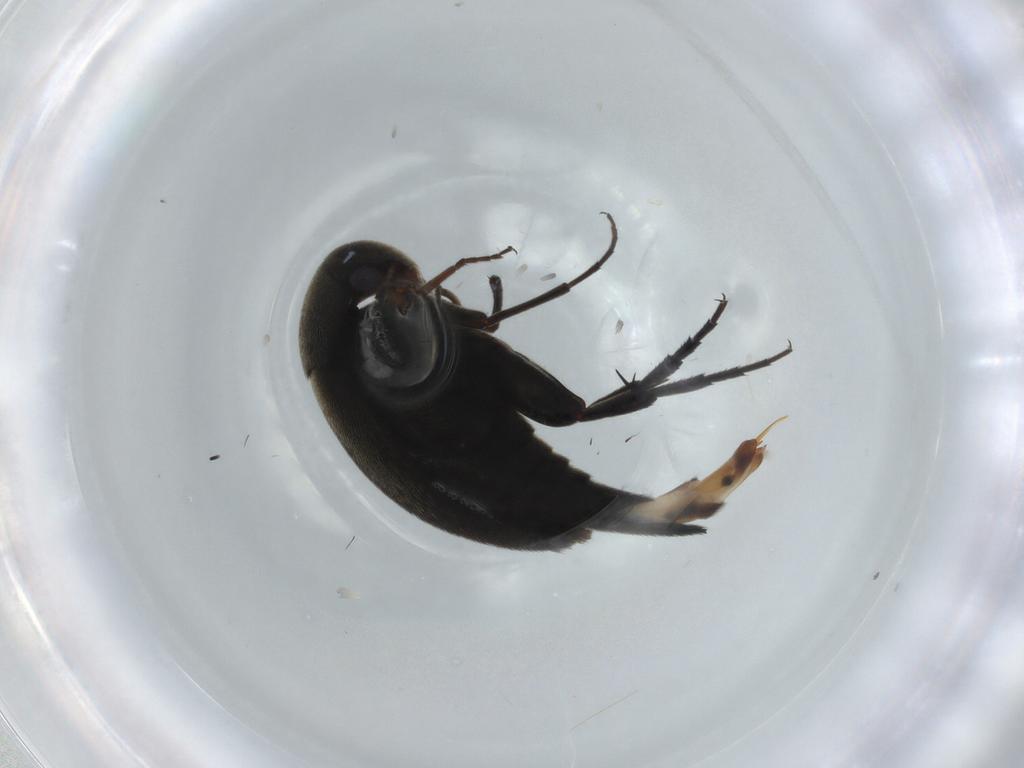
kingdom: Animalia
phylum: Arthropoda
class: Insecta
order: Coleoptera
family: Mordellidae
